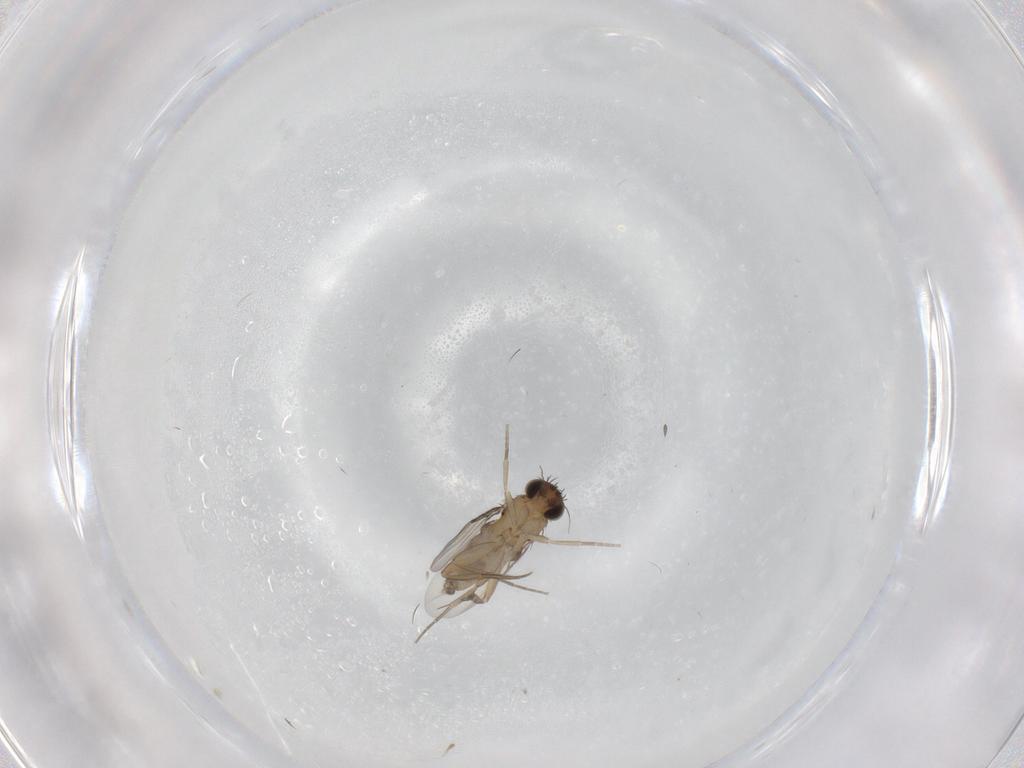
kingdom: Animalia
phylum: Arthropoda
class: Insecta
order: Diptera
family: Phoridae
